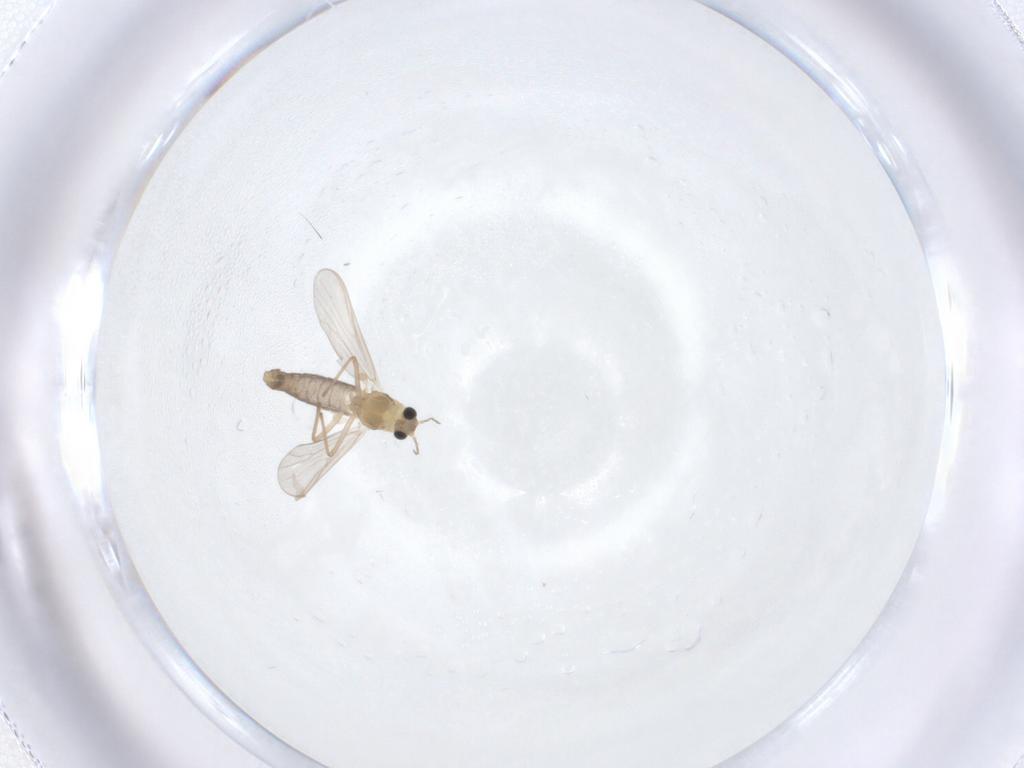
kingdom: Animalia
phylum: Arthropoda
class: Insecta
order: Diptera
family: Chironomidae
